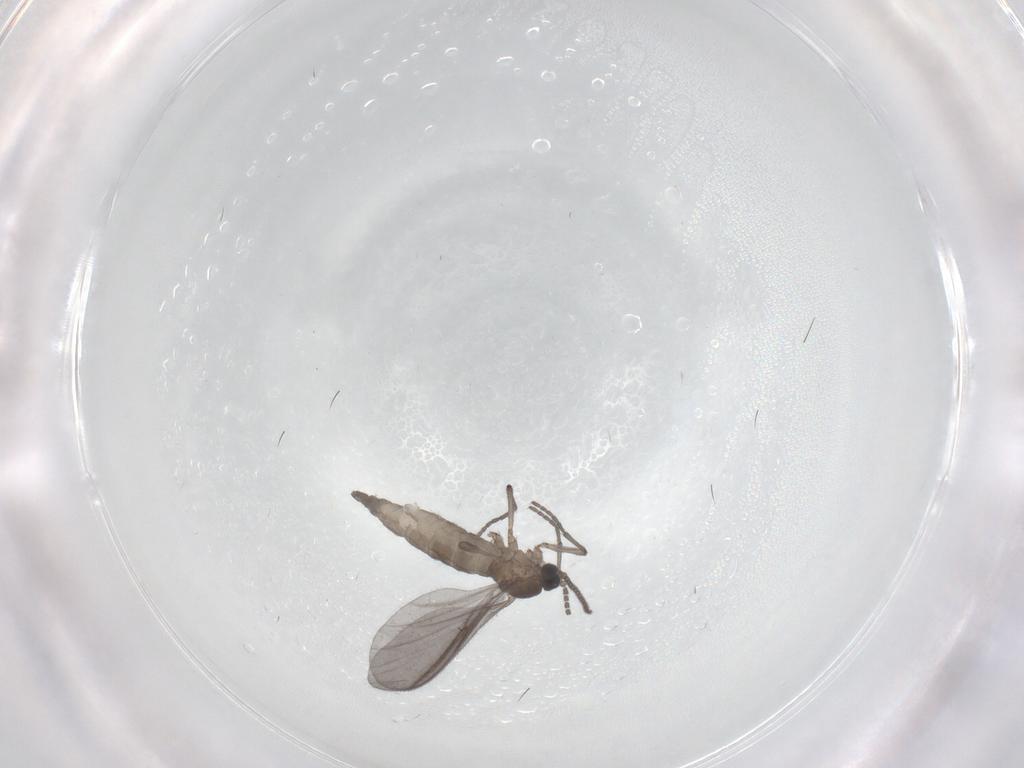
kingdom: Animalia
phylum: Arthropoda
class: Insecta
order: Diptera
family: Sciaridae
